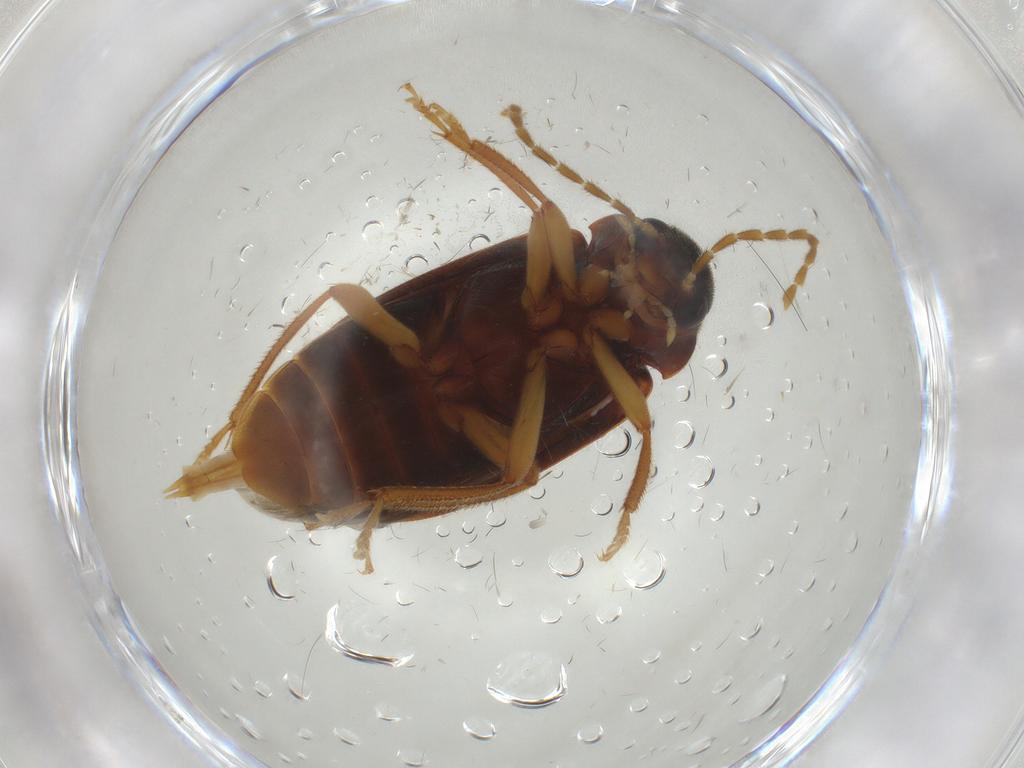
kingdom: Animalia
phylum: Arthropoda
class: Insecta
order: Coleoptera
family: Ptilodactylidae
